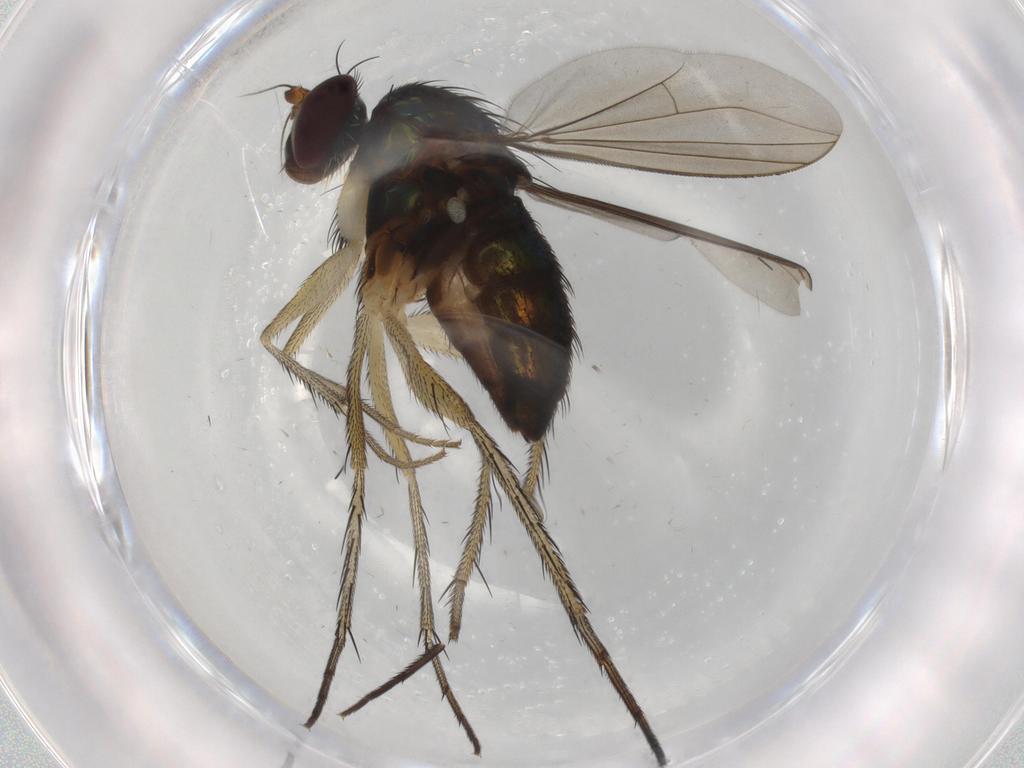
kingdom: Animalia
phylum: Arthropoda
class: Insecta
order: Diptera
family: Dolichopodidae
